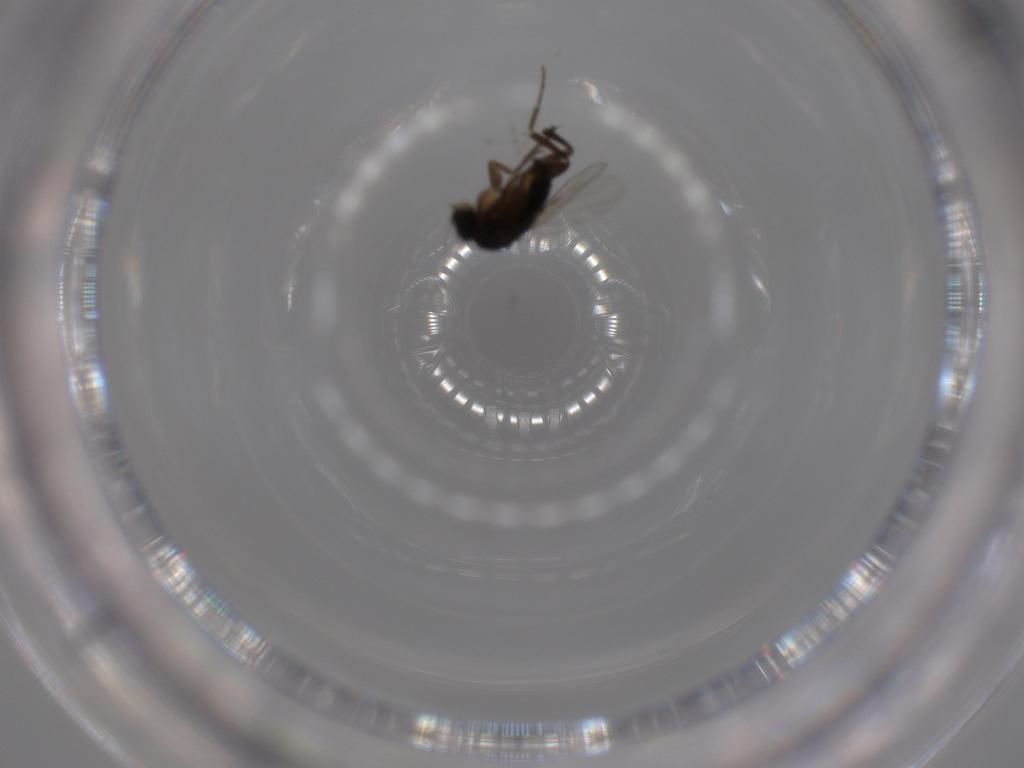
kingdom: Animalia
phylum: Arthropoda
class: Insecta
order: Diptera
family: Phoridae
